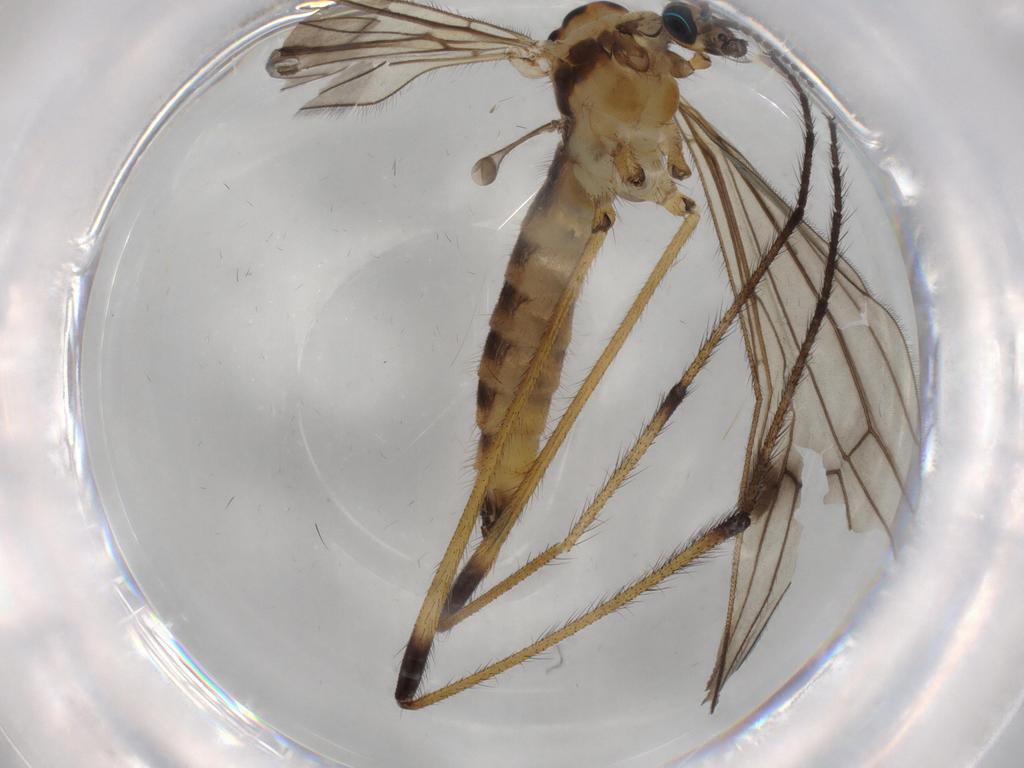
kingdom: Animalia
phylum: Arthropoda
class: Insecta
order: Diptera
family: Limoniidae
